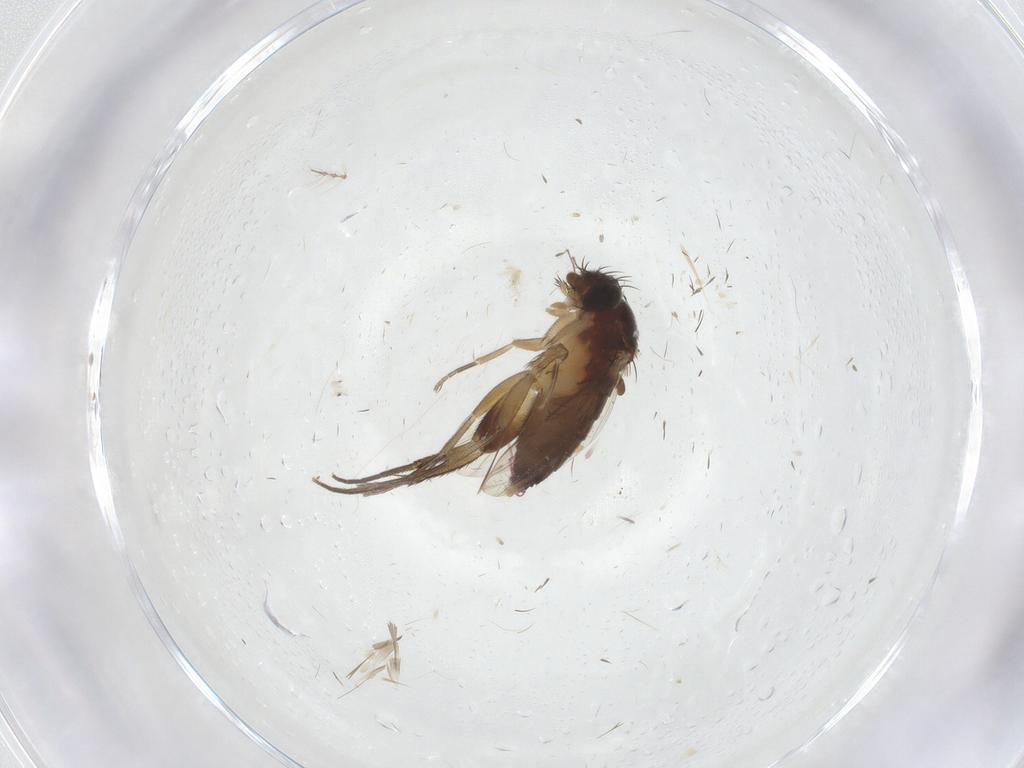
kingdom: Animalia
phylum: Arthropoda
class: Insecta
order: Diptera
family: Phoridae
